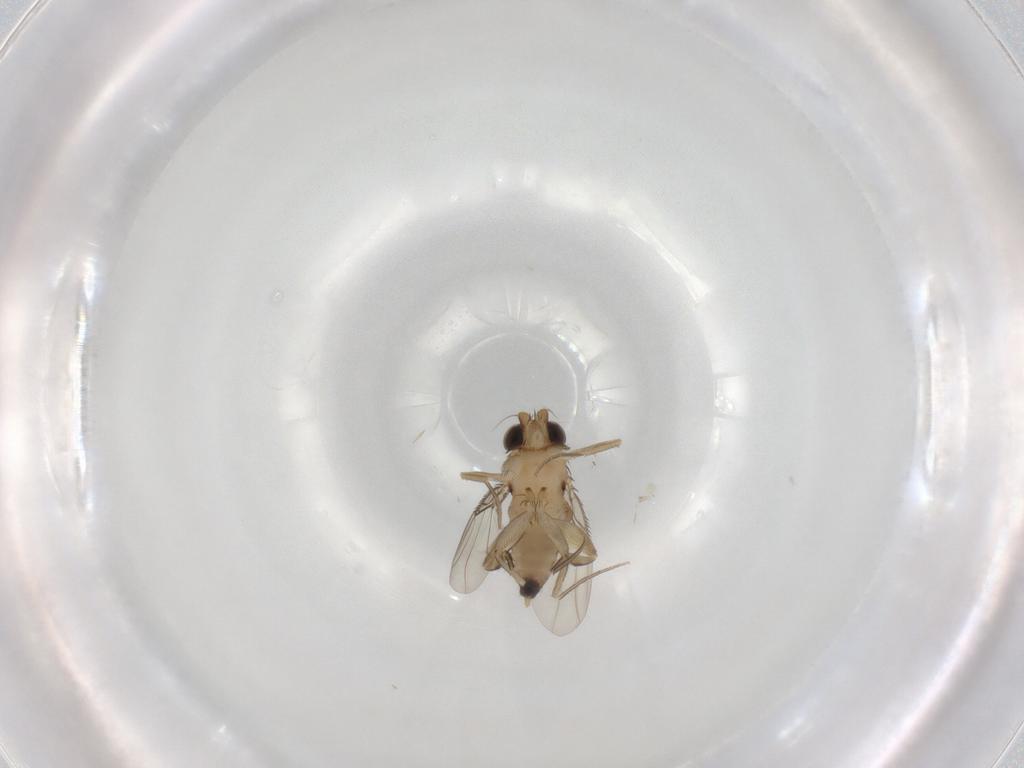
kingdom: Animalia
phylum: Arthropoda
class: Insecta
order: Diptera
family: Phoridae
